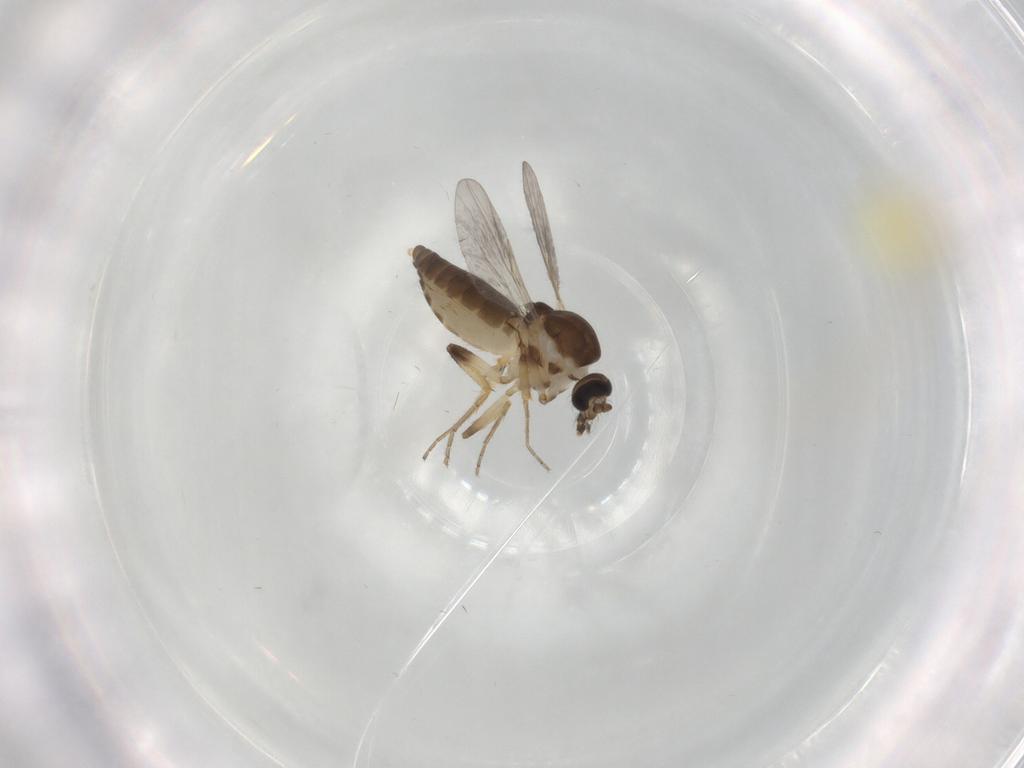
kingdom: Animalia
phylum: Arthropoda
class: Insecta
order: Diptera
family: Ceratopogonidae
